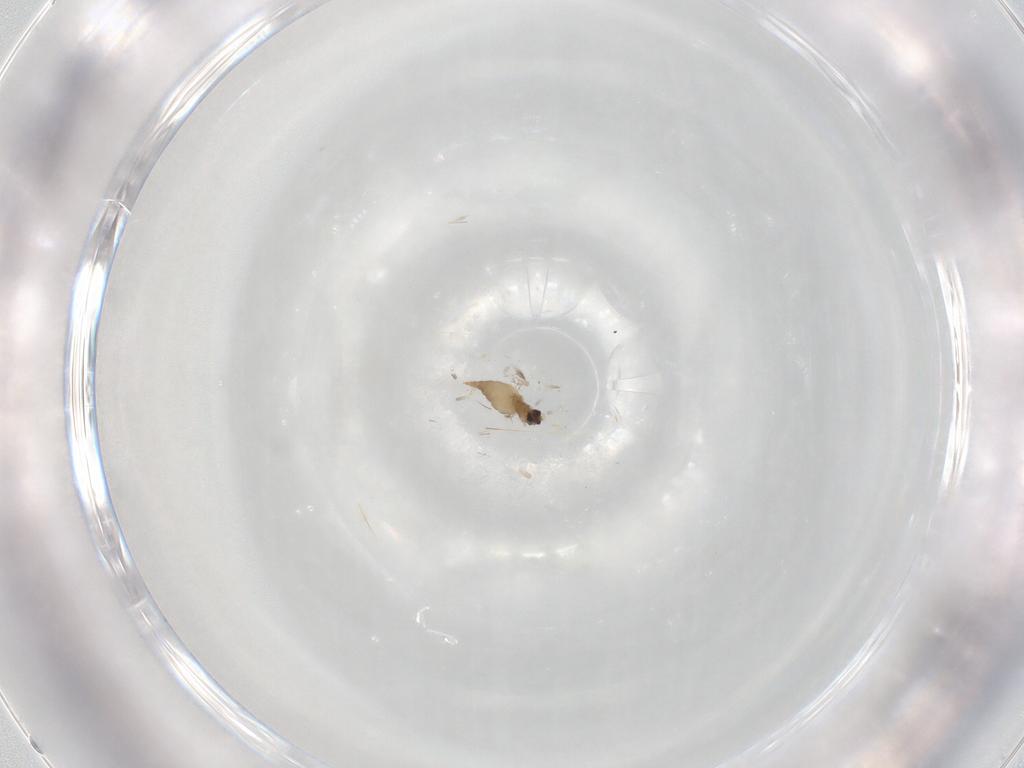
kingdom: Animalia
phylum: Arthropoda
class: Insecta
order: Diptera
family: Cecidomyiidae
